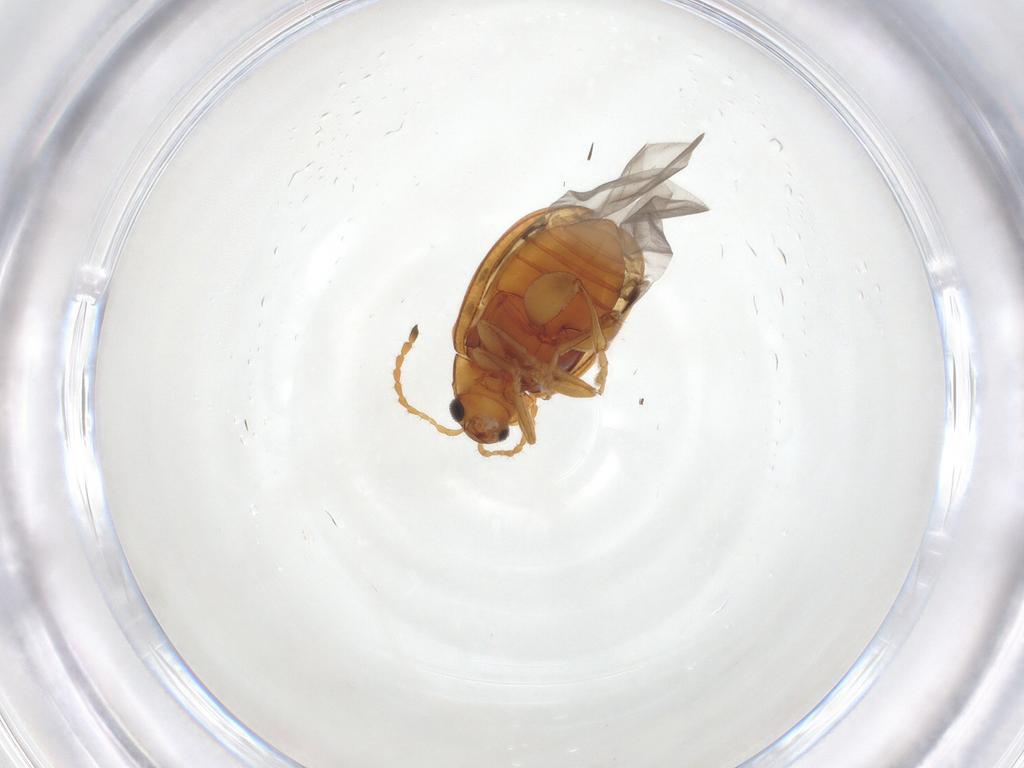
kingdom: Animalia
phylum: Arthropoda
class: Insecta
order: Coleoptera
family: Chrysomelidae
